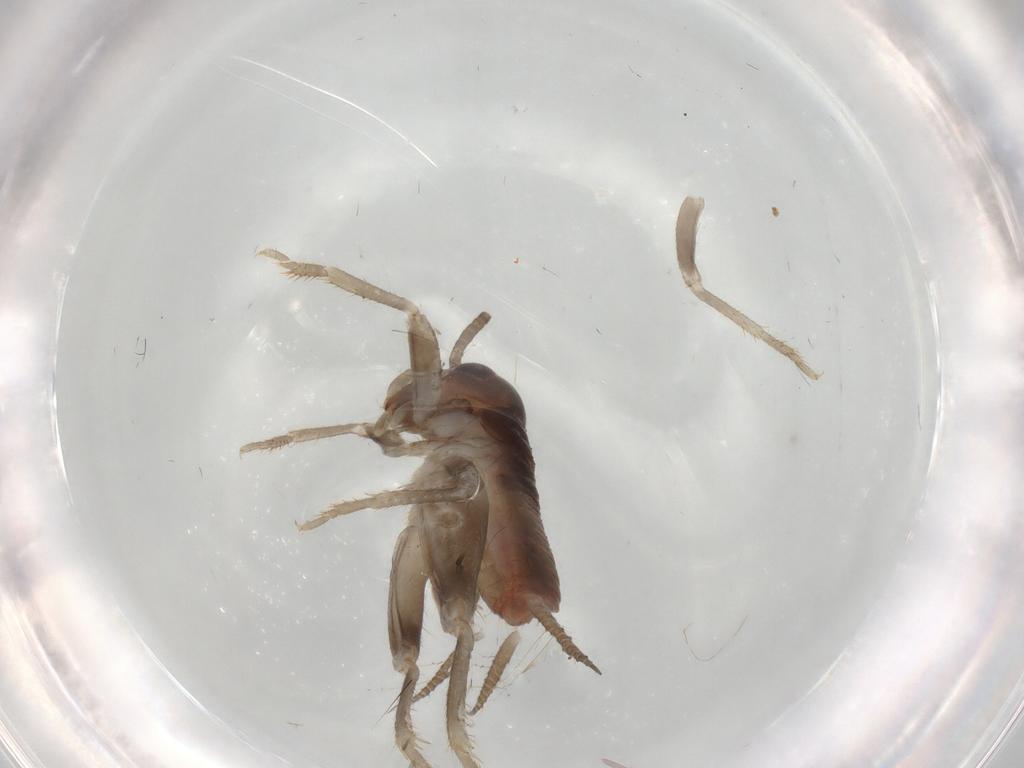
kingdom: Animalia
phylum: Arthropoda
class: Insecta
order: Orthoptera
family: Gryllidae
